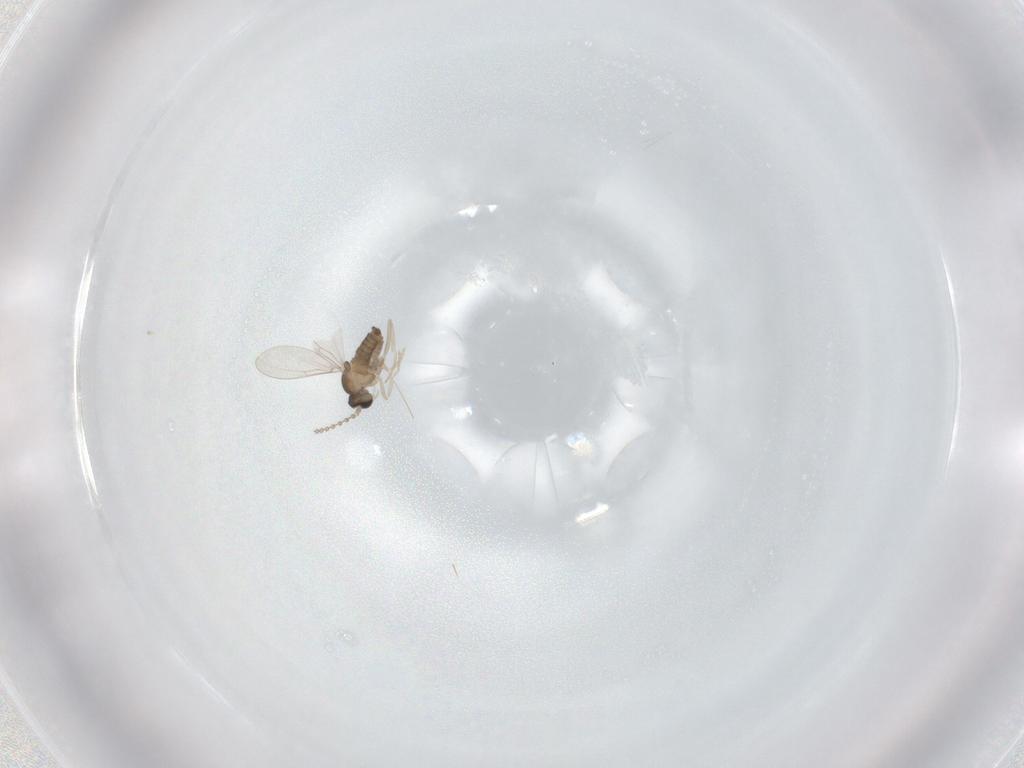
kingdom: Animalia
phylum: Arthropoda
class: Insecta
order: Diptera
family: Cecidomyiidae
